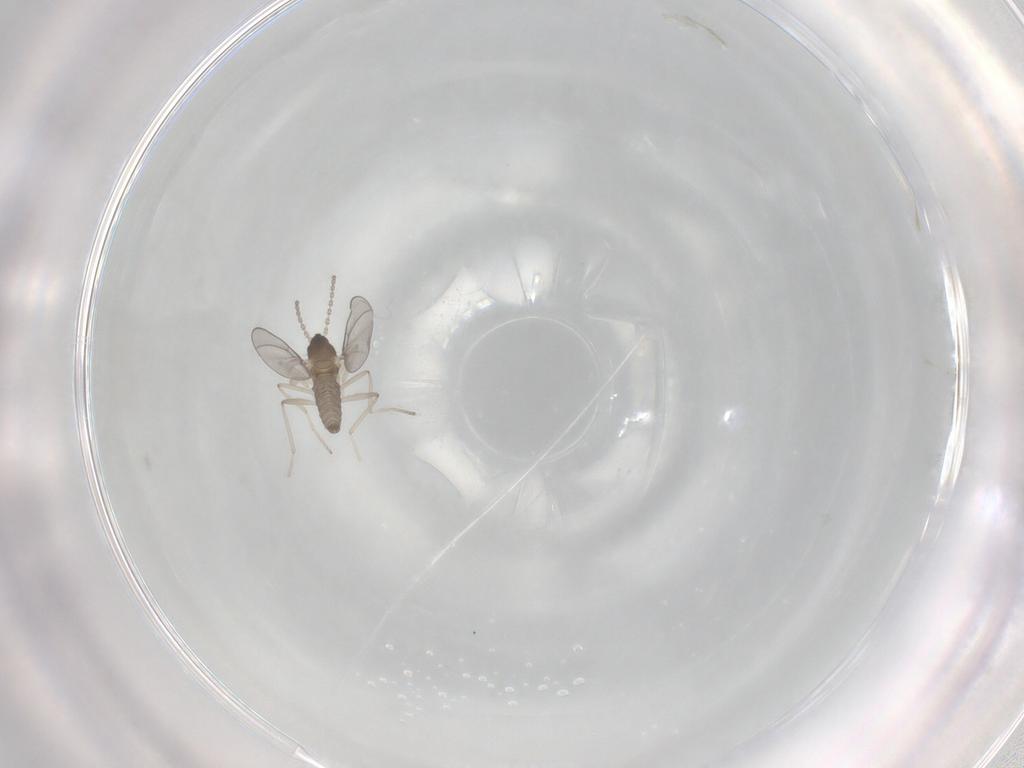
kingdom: Animalia
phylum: Arthropoda
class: Insecta
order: Diptera
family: Cecidomyiidae
